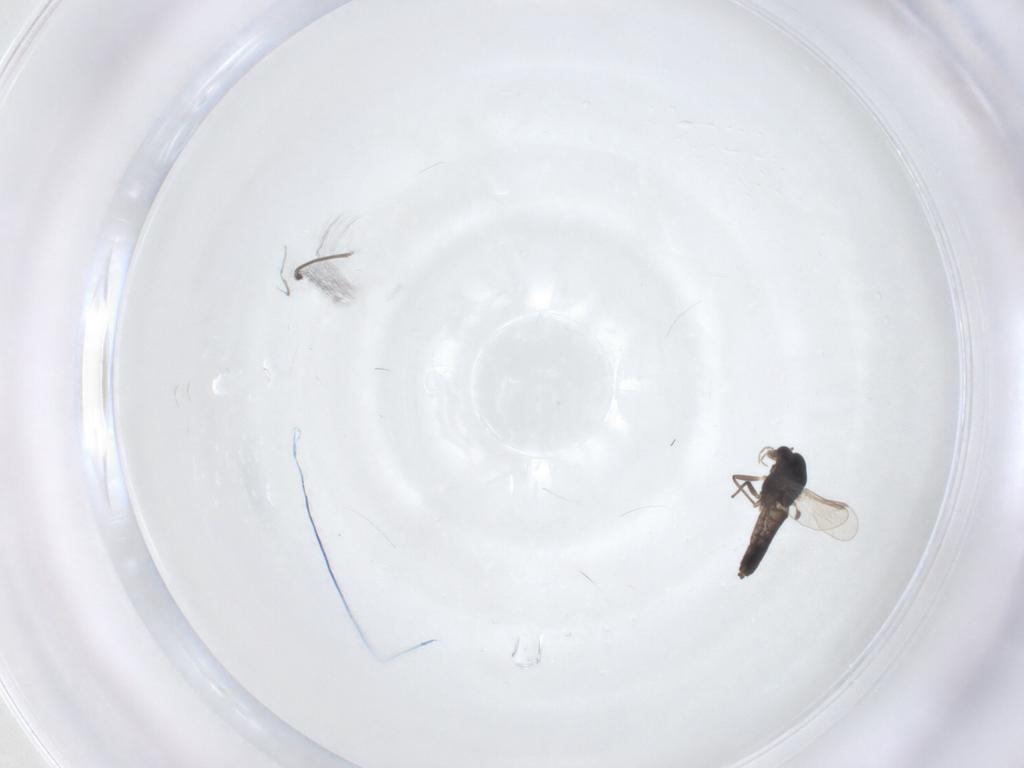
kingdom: Animalia
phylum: Arthropoda
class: Insecta
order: Diptera
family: Chironomidae
